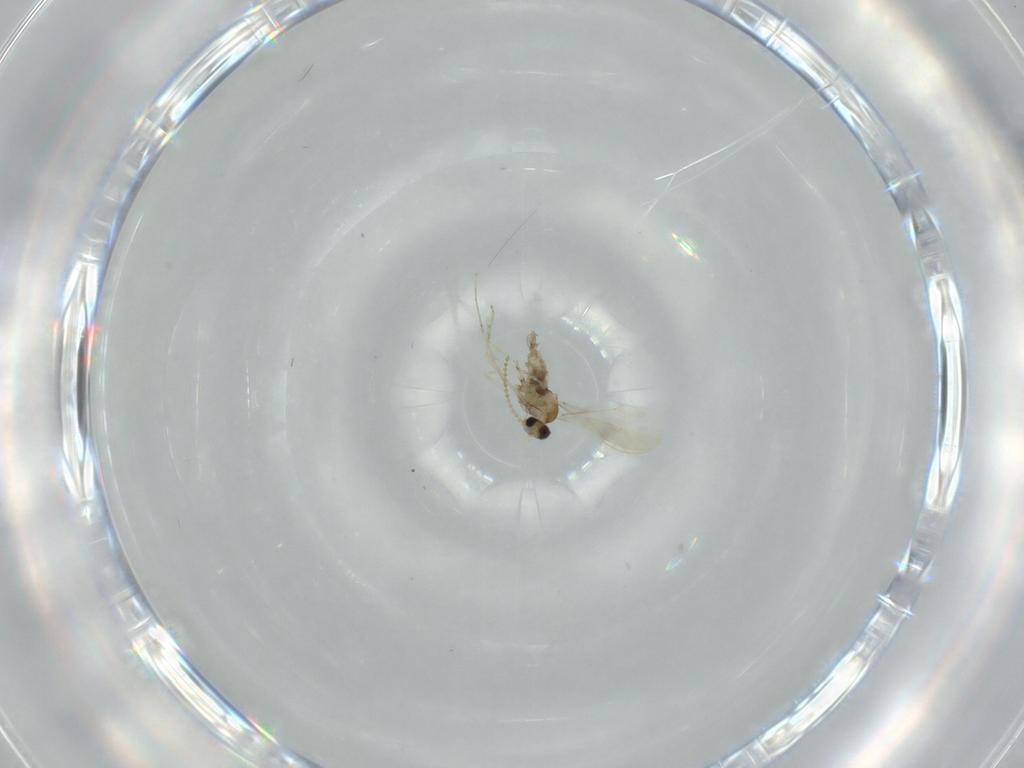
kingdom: Animalia
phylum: Arthropoda
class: Insecta
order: Diptera
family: Cecidomyiidae
